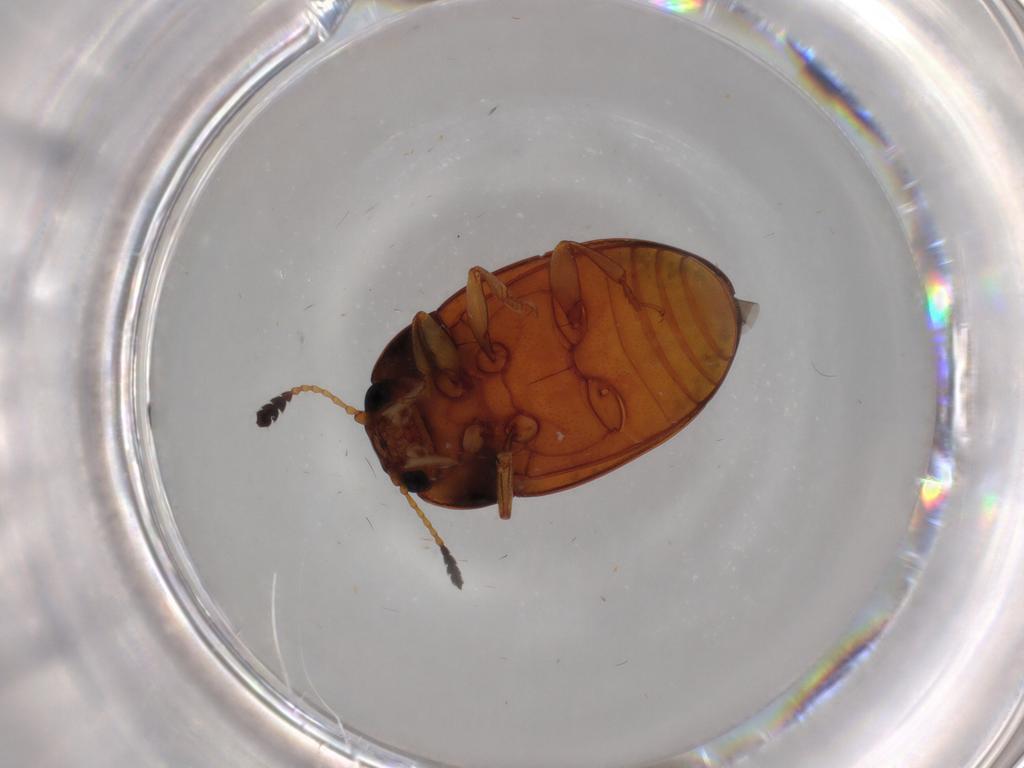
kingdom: Animalia
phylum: Arthropoda
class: Insecta
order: Coleoptera
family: Erotylidae
